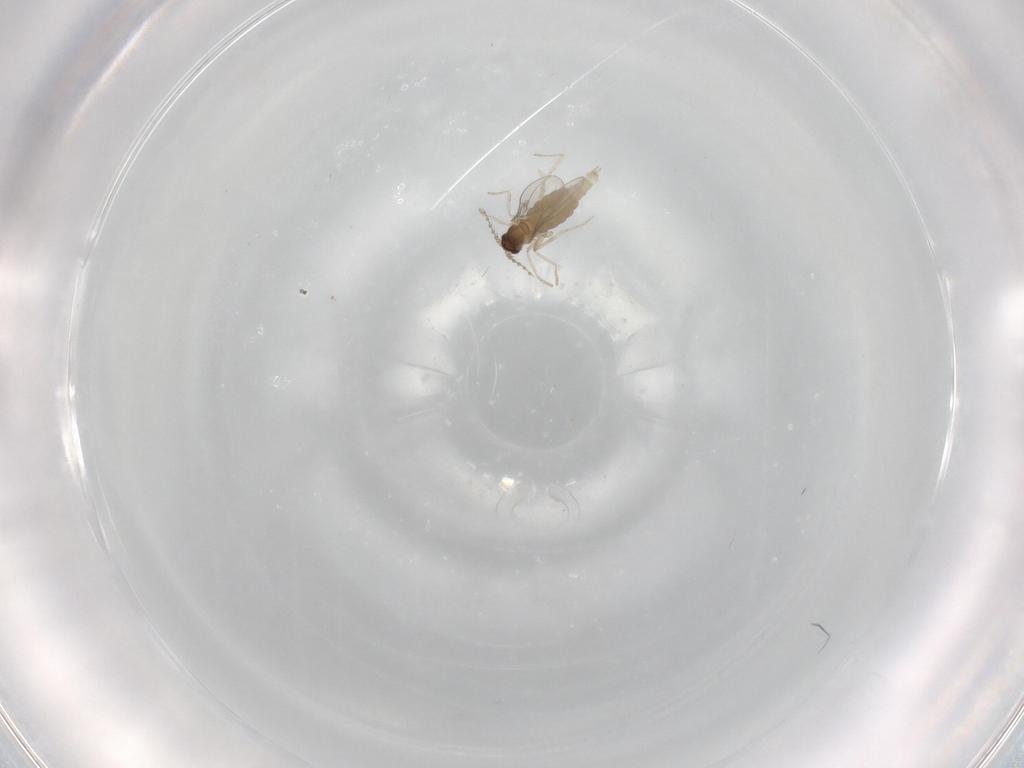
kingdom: Animalia
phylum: Arthropoda
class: Insecta
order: Diptera
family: Cecidomyiidae
